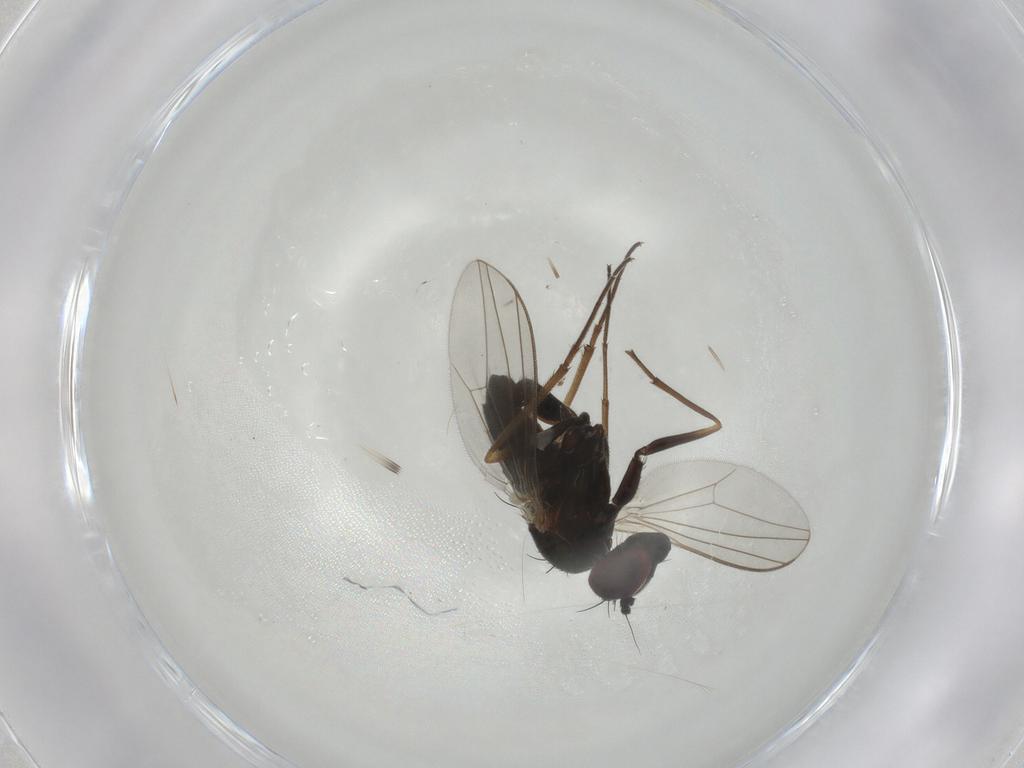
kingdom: Animalia
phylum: Arthropoda
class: Insecta
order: Diptera
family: Dolichopodidae
